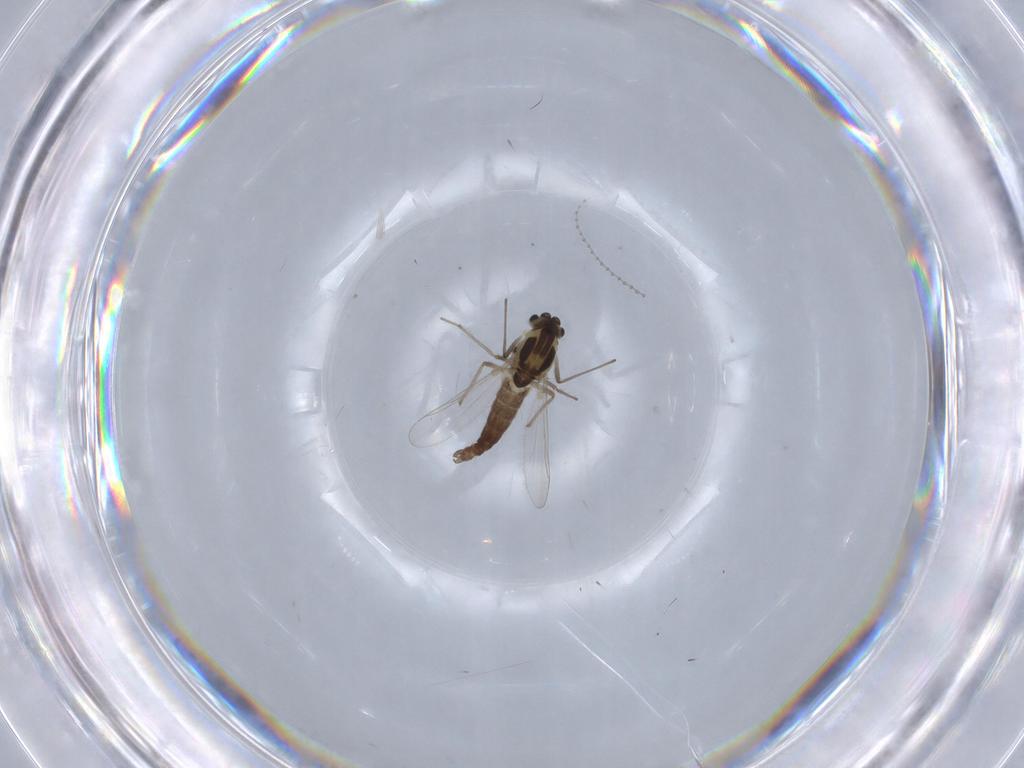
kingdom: Animalia
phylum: Arthropoda
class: Insecta
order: Diptera
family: Chironomidae
